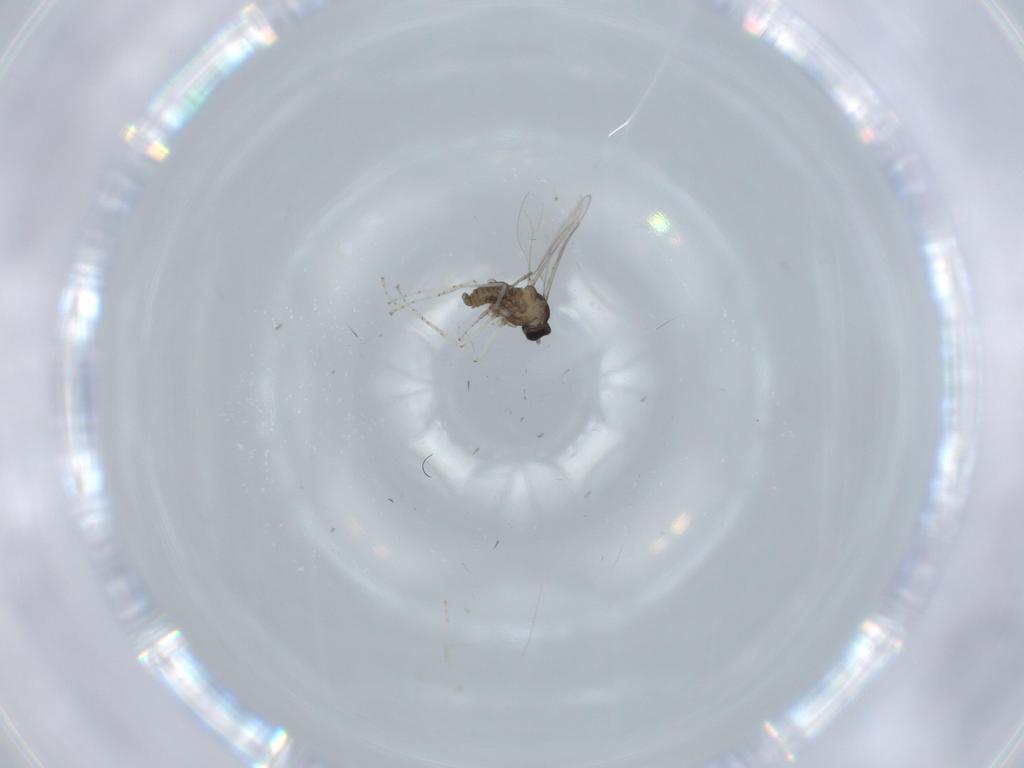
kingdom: Animalia
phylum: Arthropoda
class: Insecta
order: Diptera
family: Cecidomyiidae
